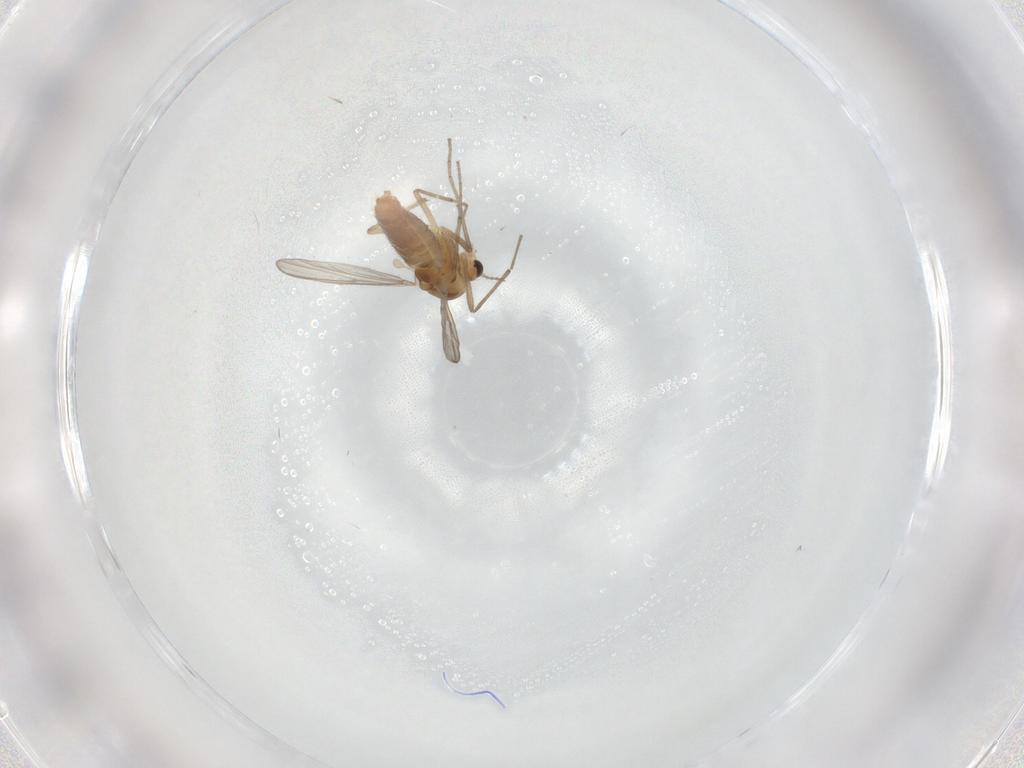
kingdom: Animalia
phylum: Arthropoda
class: Insecta
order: Diptera
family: Chironomidae
